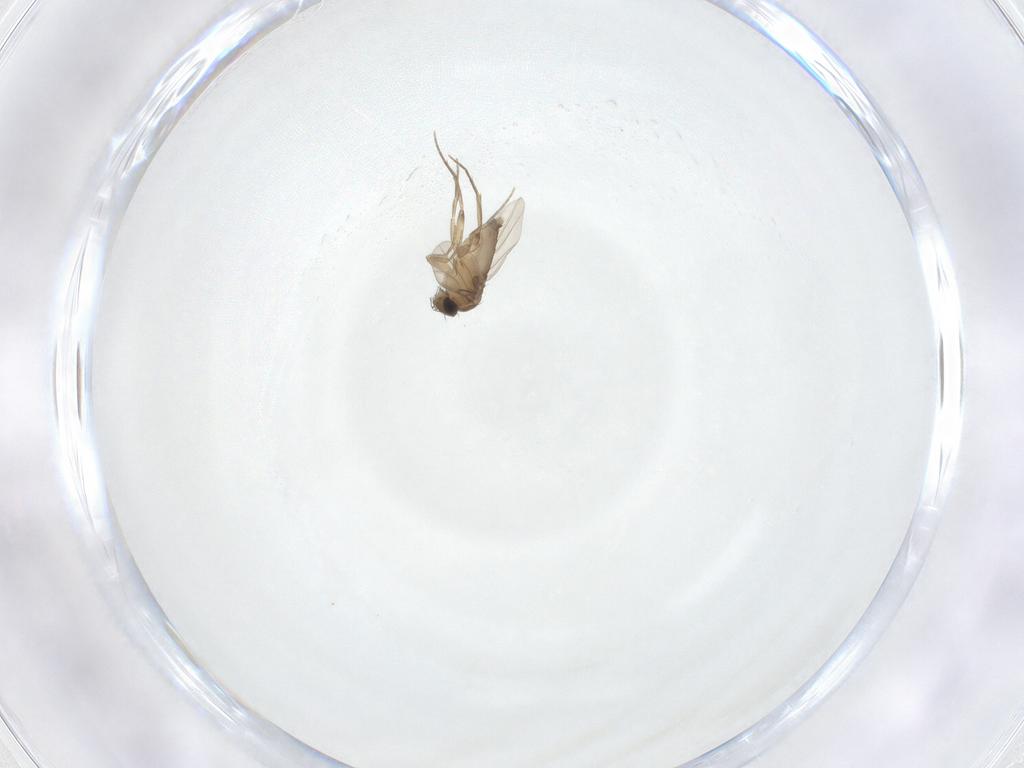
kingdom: Animalia
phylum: Arthropoda
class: Insecta
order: Diptera
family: Phoridae
